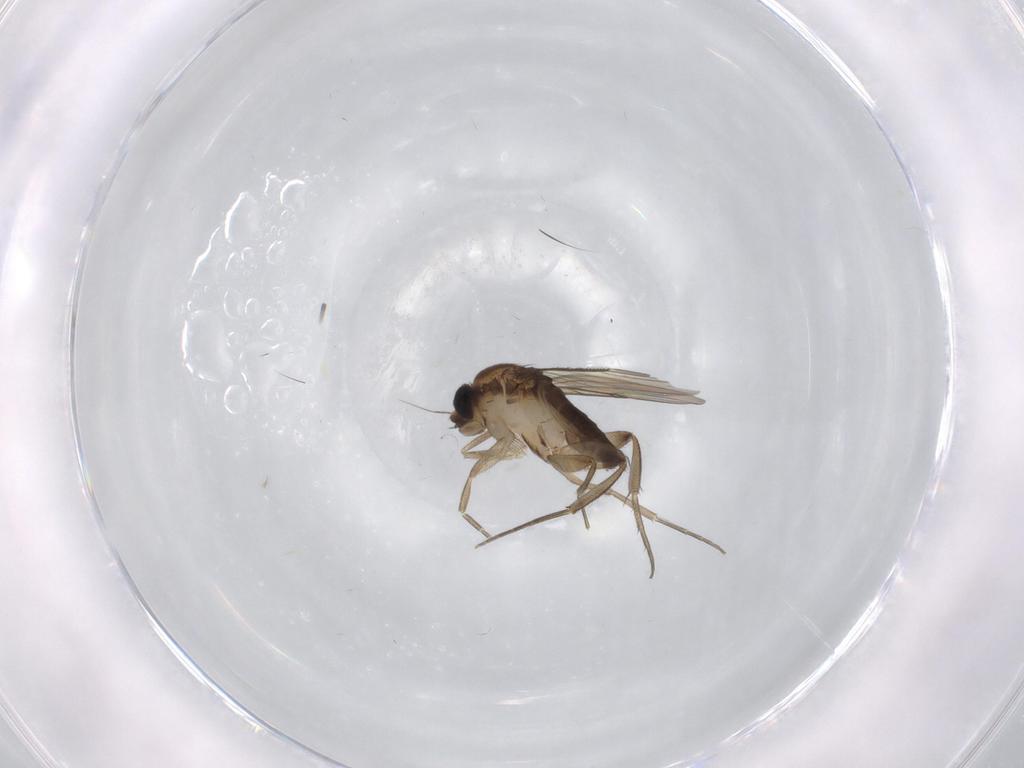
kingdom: Animalia
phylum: Arthropoda
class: Insecta
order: Diptera
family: Phoridae
